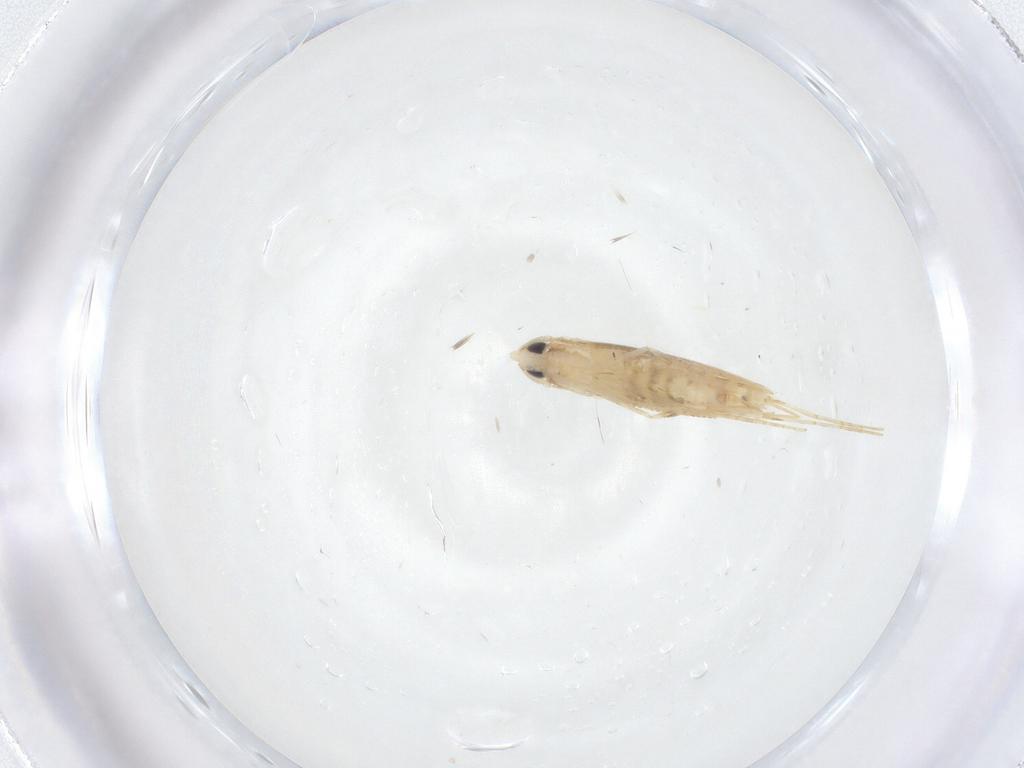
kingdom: Animalia
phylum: Arthropoda
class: Insecta
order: Lepidoptera
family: Tineidae
